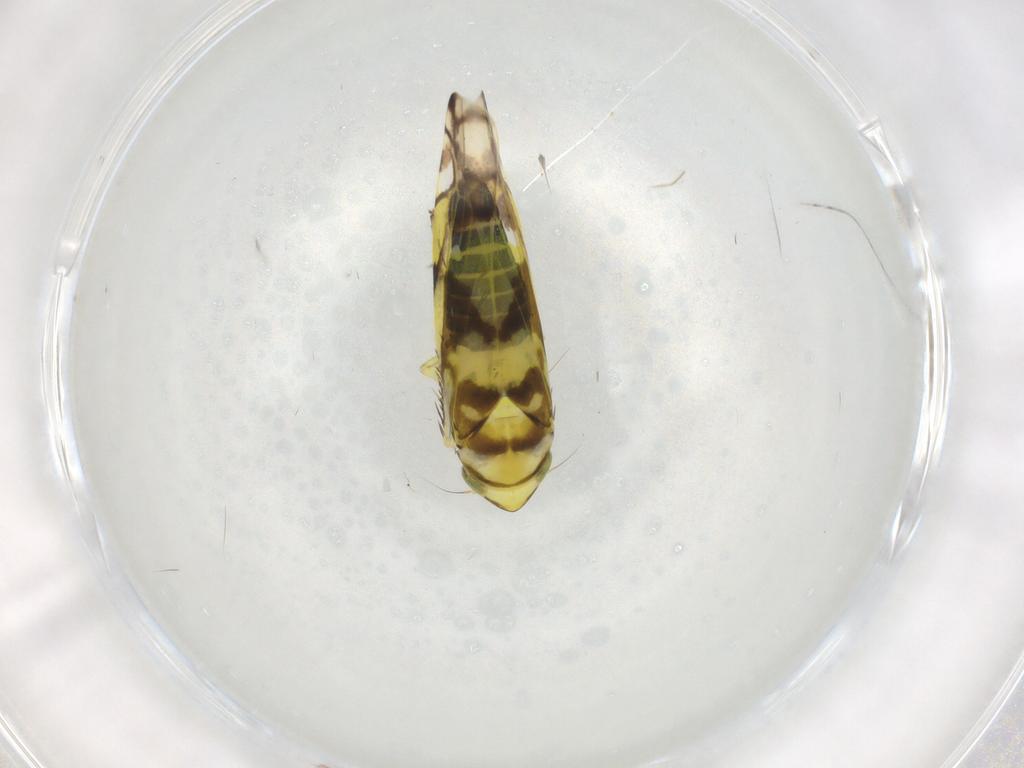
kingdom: Animalia
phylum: Arthropoda
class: Insecta
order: Hemiptera
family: Cicadellidae
